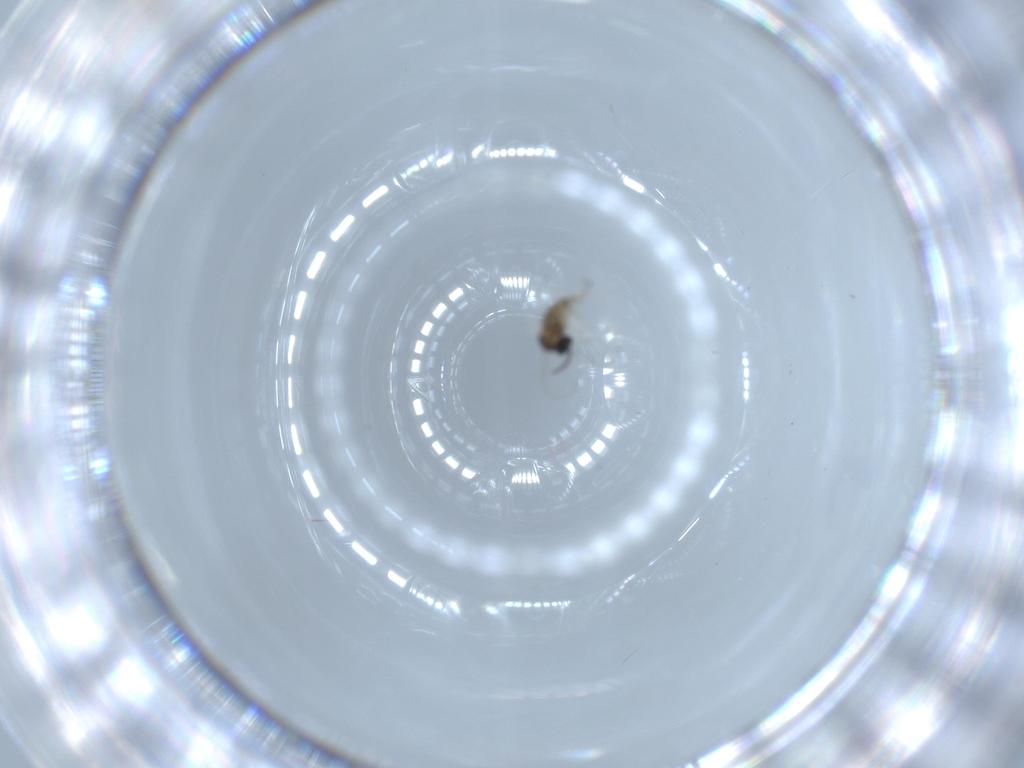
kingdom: Animalia
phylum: Arthropoda
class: Insecta
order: Diptera
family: Cecidomyiidae
